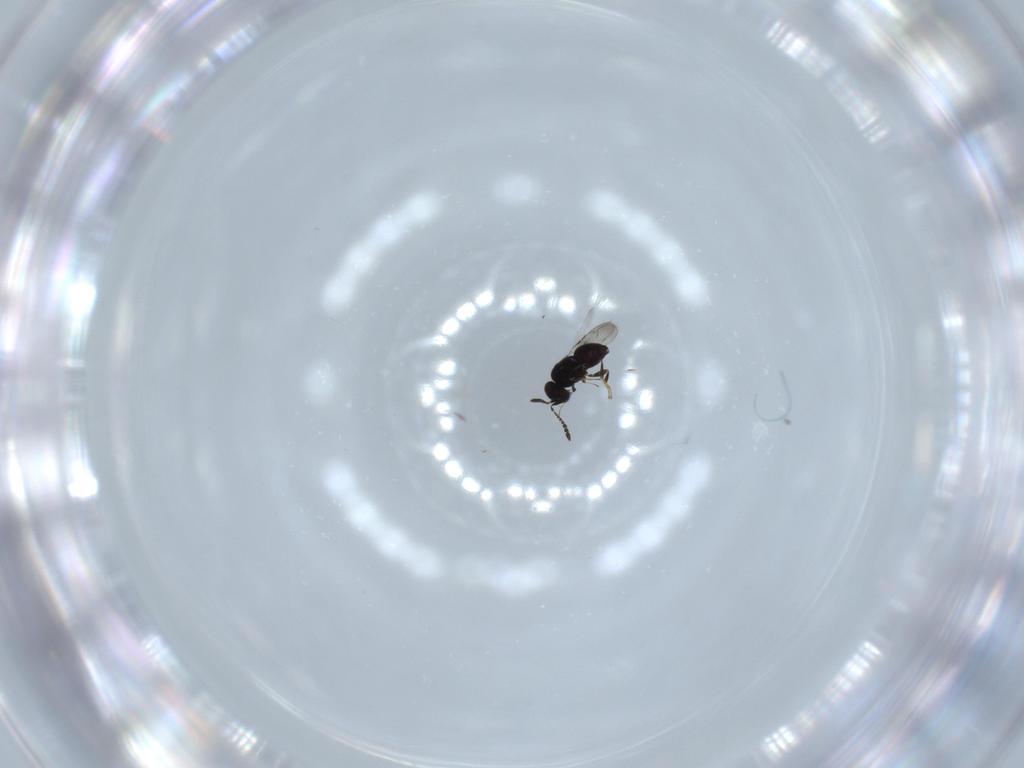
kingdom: Animalia
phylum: Arthropoda
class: Insecta
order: Hymenoptera
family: Ceraphronidae
